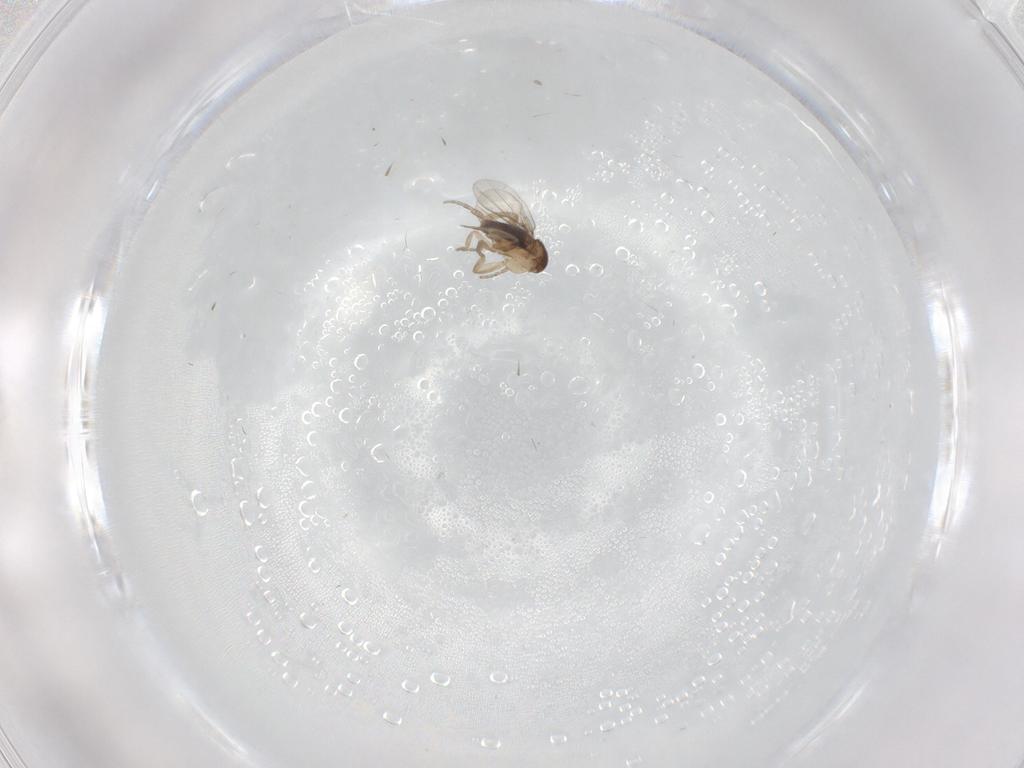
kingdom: Animalia
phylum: Arthropoda
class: Insecta
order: Diptera
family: Phoridae
